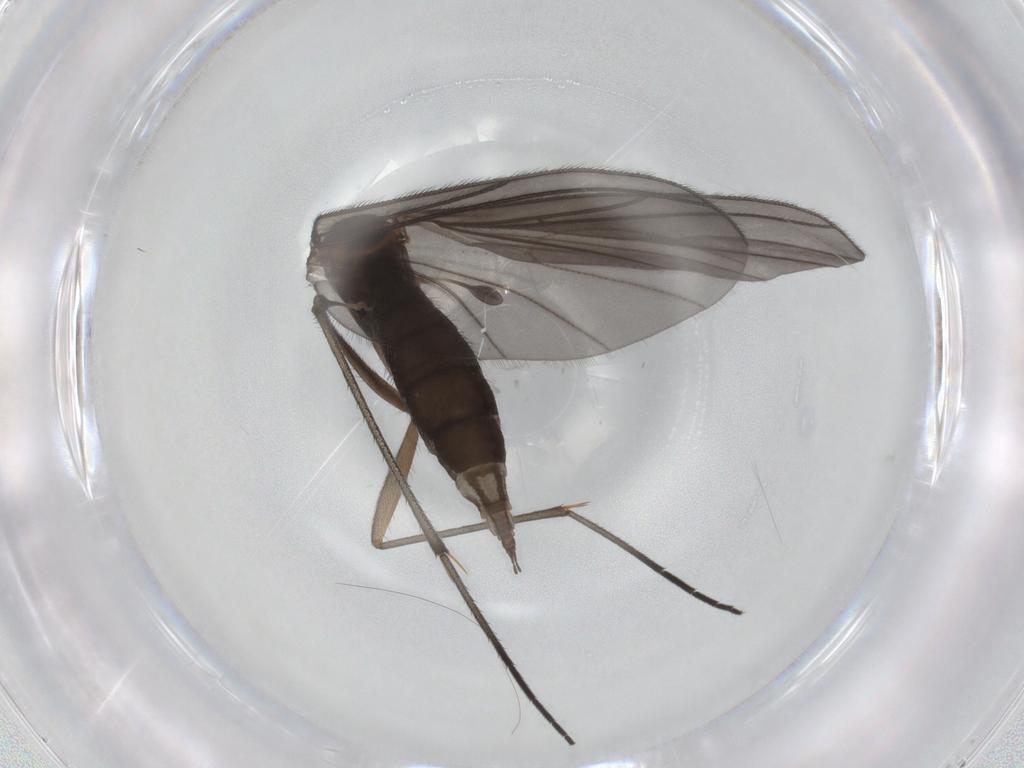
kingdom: Animalia
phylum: Arthropoda
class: Insecta
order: Diptera
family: Sciaridae
